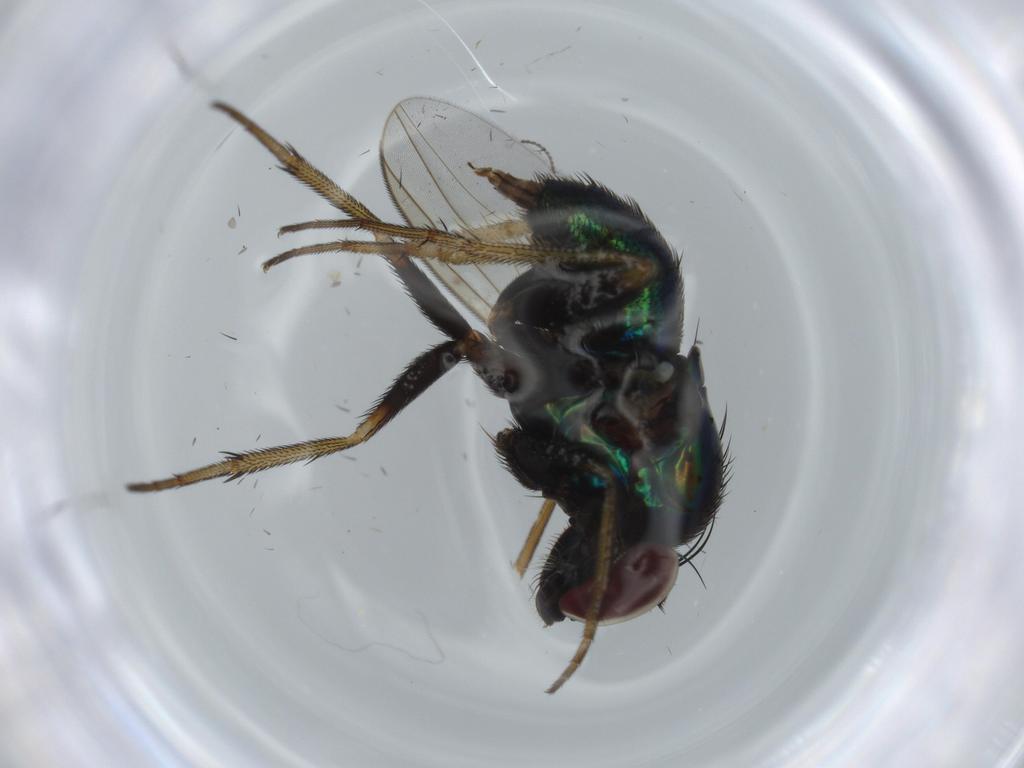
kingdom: Animalia
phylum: Arthropoda
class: Insecta
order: Diptera
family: Dolichopodidae
